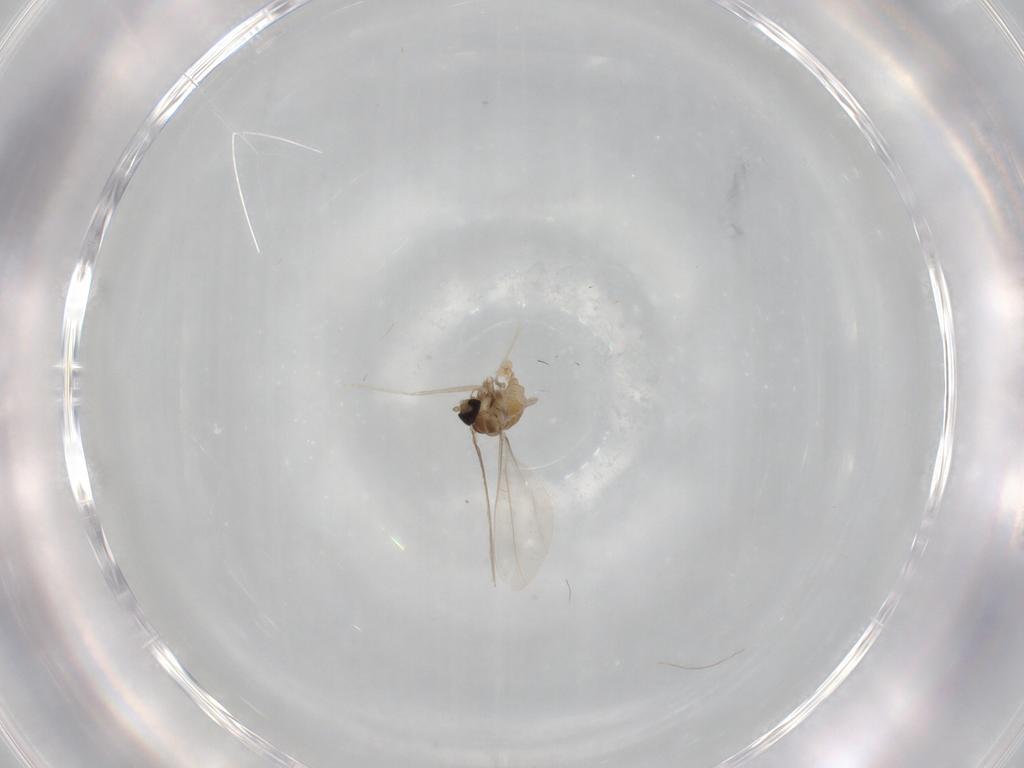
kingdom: Animalia
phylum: Arthropoda
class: Insecta
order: Diptera
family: Cecidomyiidae
